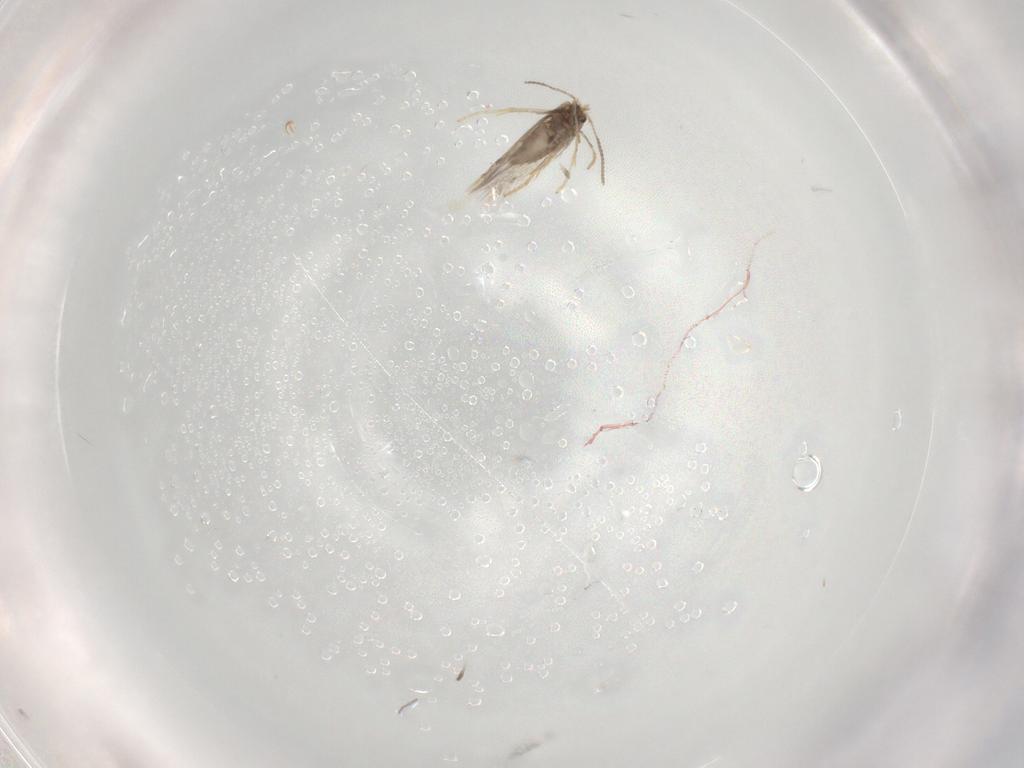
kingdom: Animalia
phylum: Arthropoda
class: Insecta
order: Lepidoptera
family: Nepticulidae
